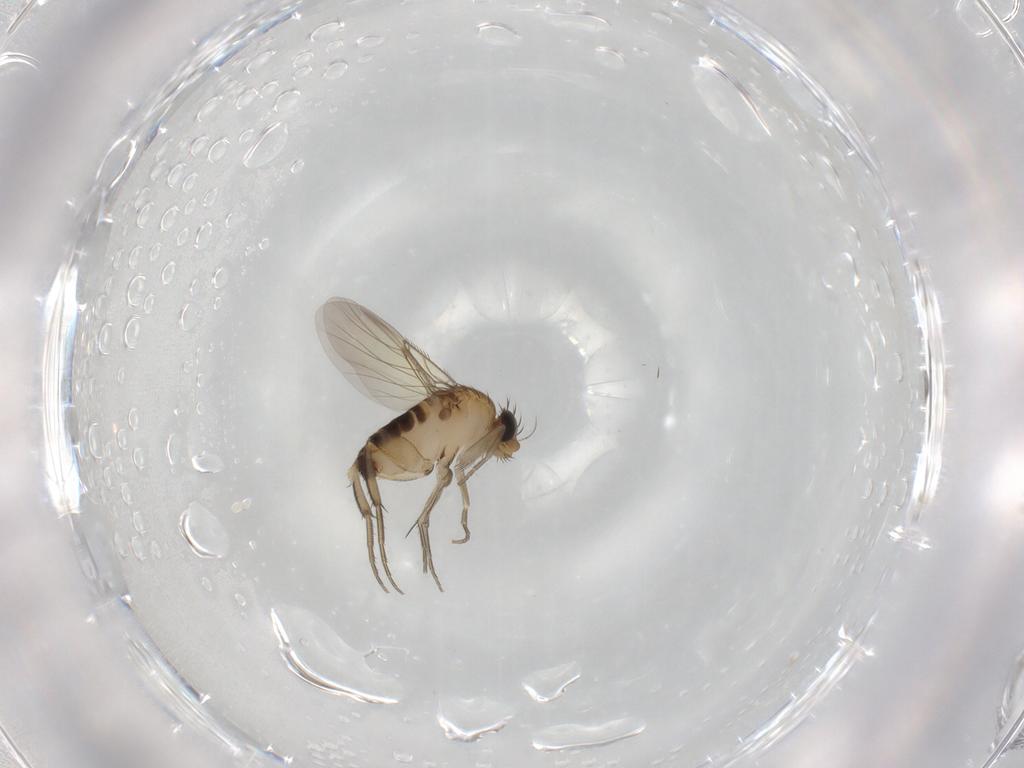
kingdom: Animalia
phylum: Arthropoda
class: Insecta
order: Diptera
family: Phoridae
